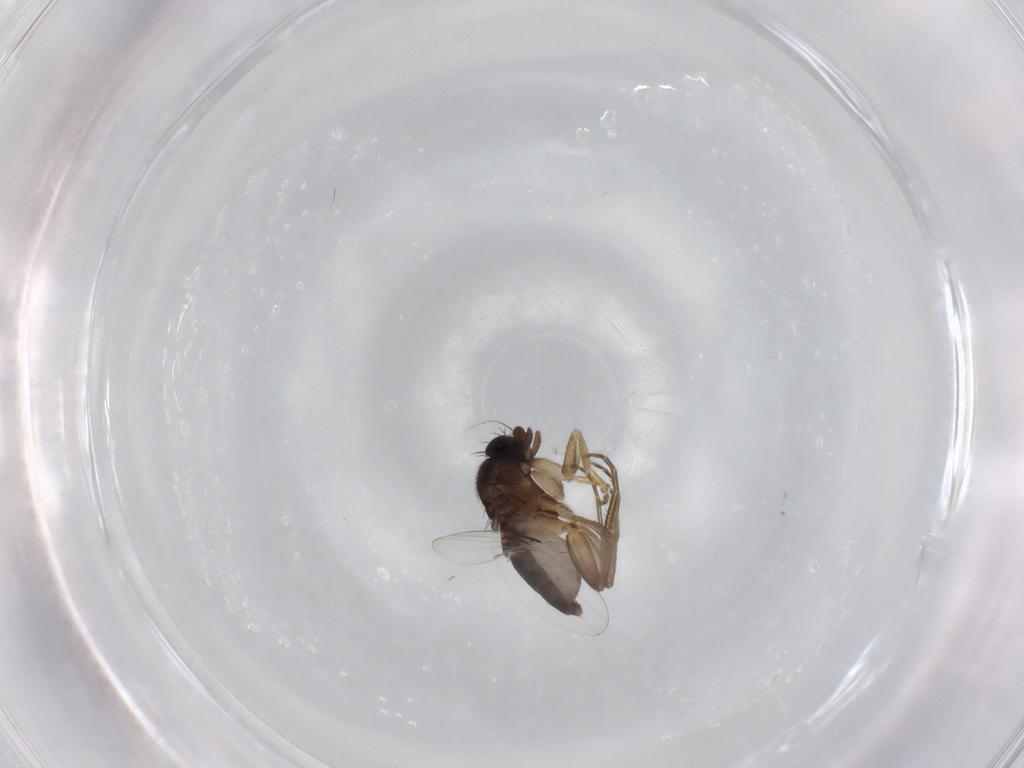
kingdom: Animalia
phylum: Arthropoda
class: Insecta
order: Diptera
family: Phoridae
